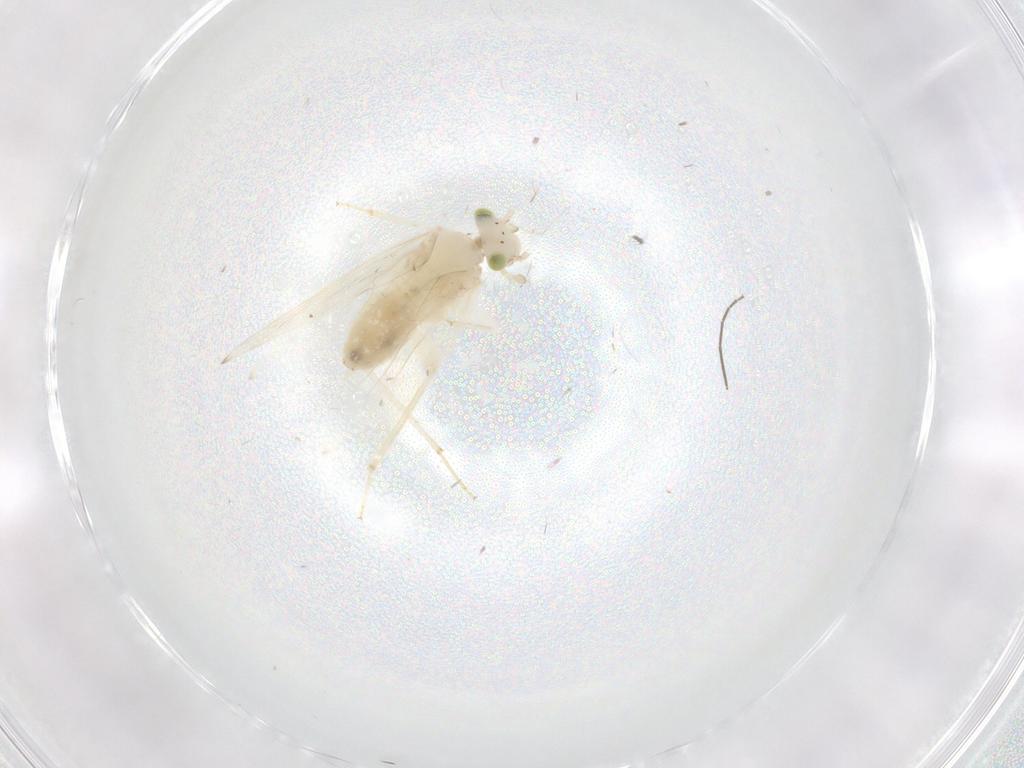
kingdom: Animalia
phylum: Arthropoda
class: Insecta
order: Psocodea
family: Lepidopsocidae
